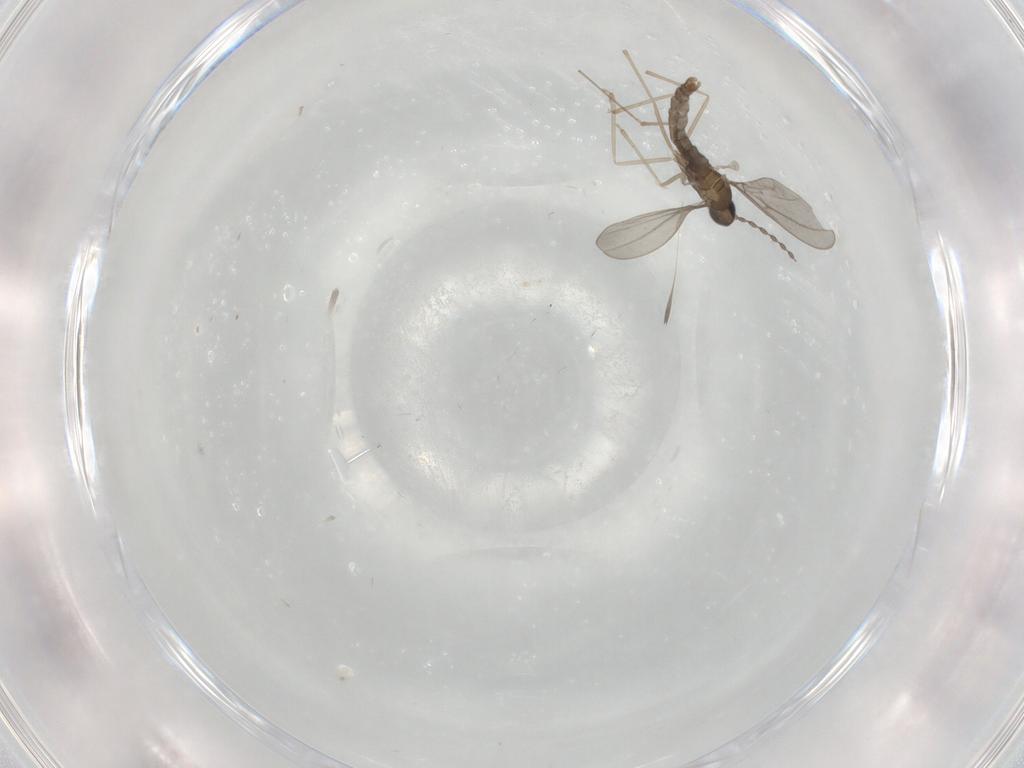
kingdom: Animalia
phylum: Arthropoda
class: Insecta
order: Diptera
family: Cecidomyiidae
